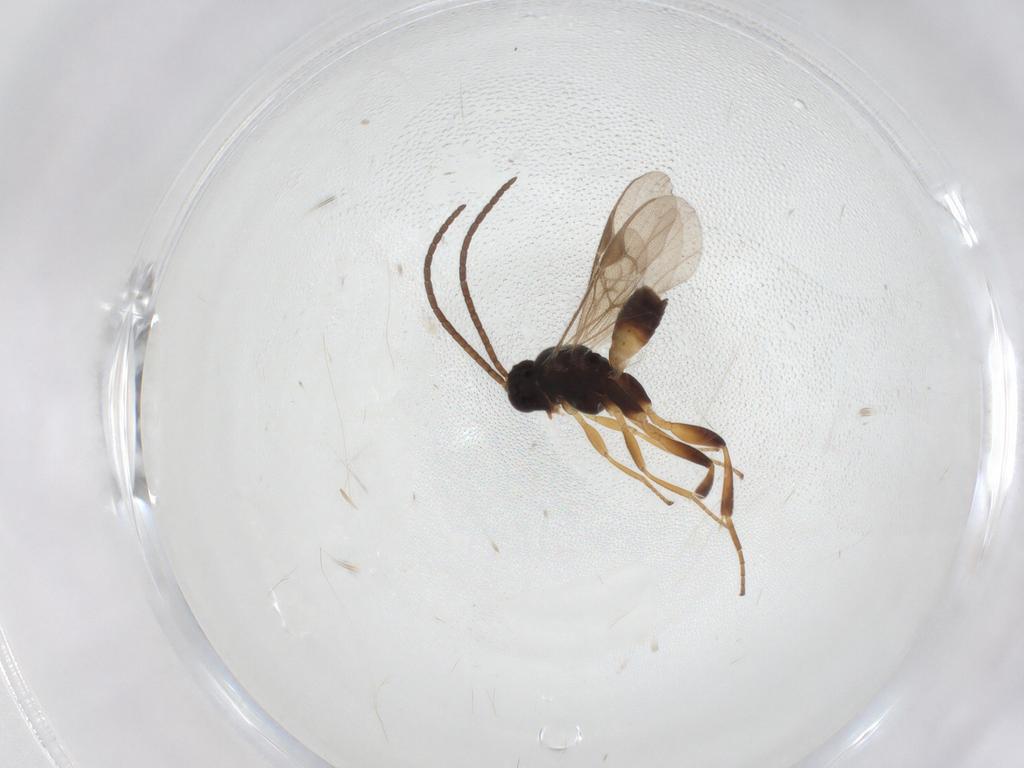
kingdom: Animalia
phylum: Arthropoda
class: Insecta
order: Hymenoptera
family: Braconidae
